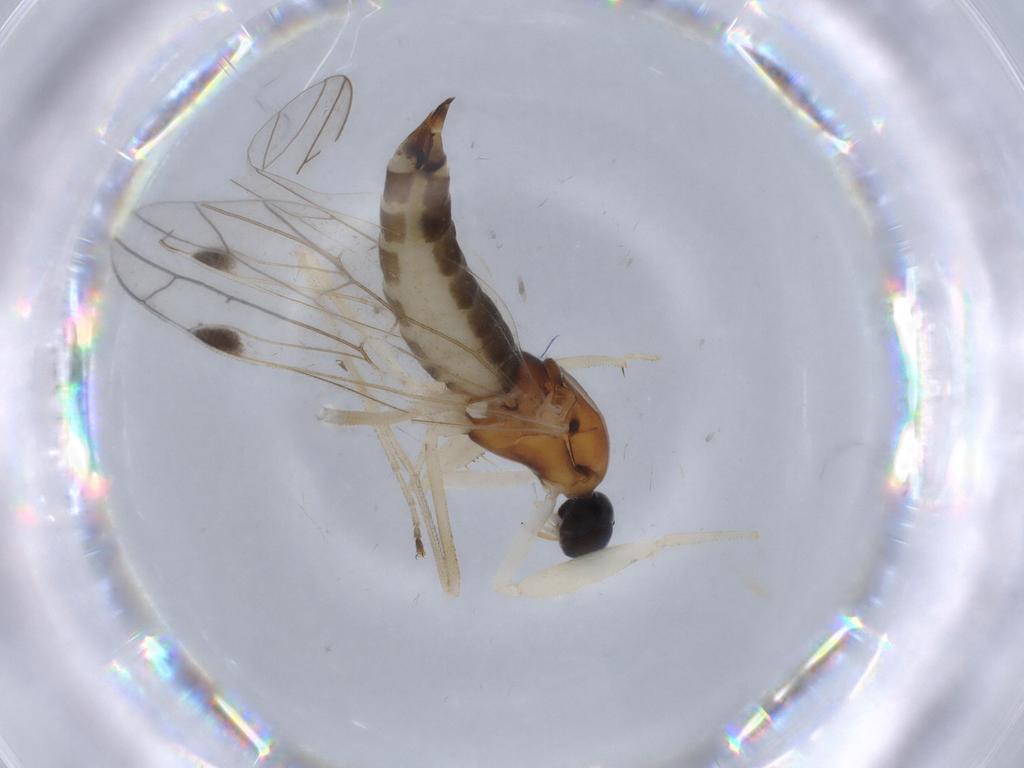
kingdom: Animalia
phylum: Arthropoda
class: Insecta
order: Diptera
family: Empididae
